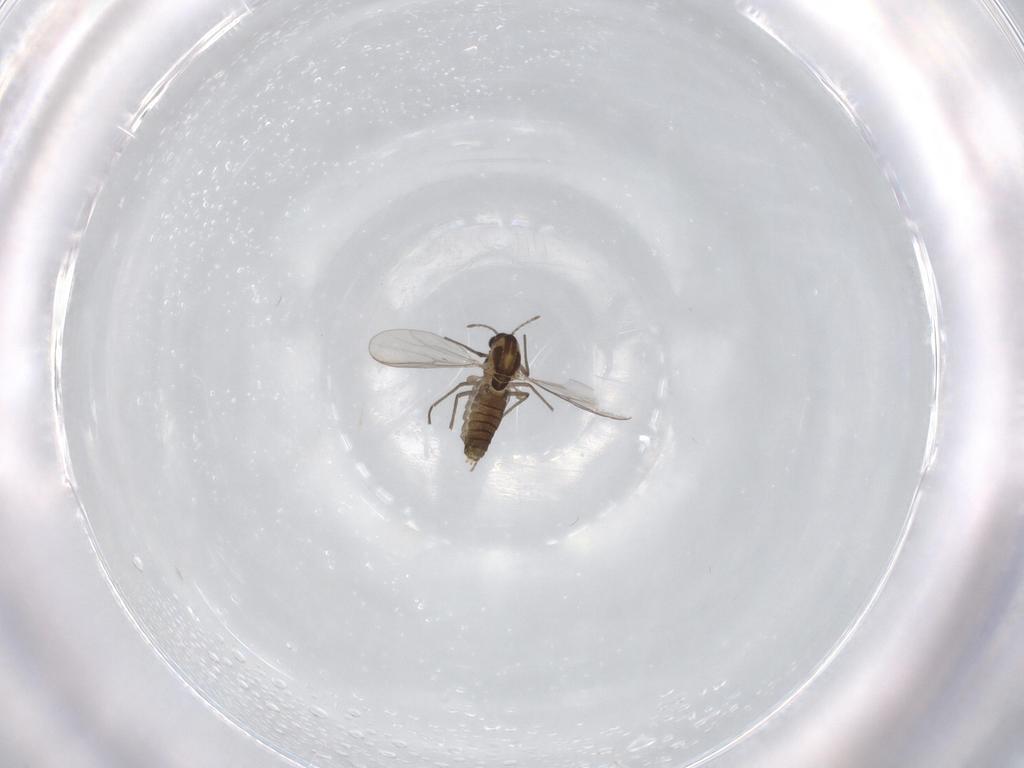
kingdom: Animalia
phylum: Arthropoda
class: Insecta
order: Diptera
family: Chironomidae
